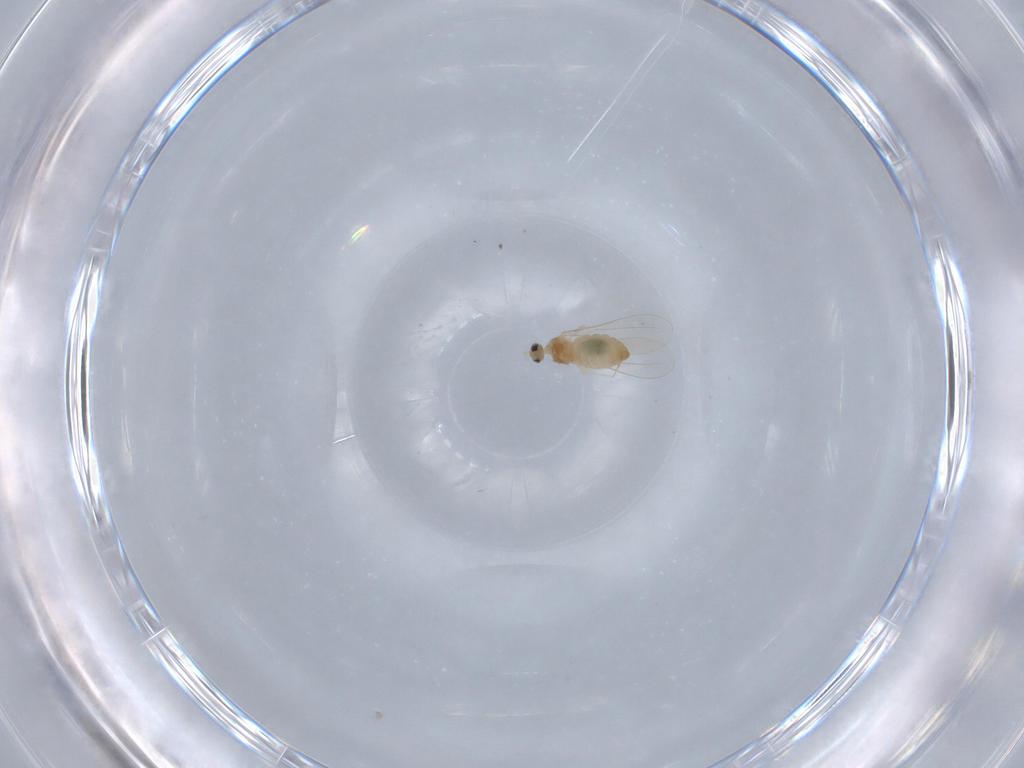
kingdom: Animalia
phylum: Arthropoda
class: Insecta
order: Diptera
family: Cecidomyiidae
